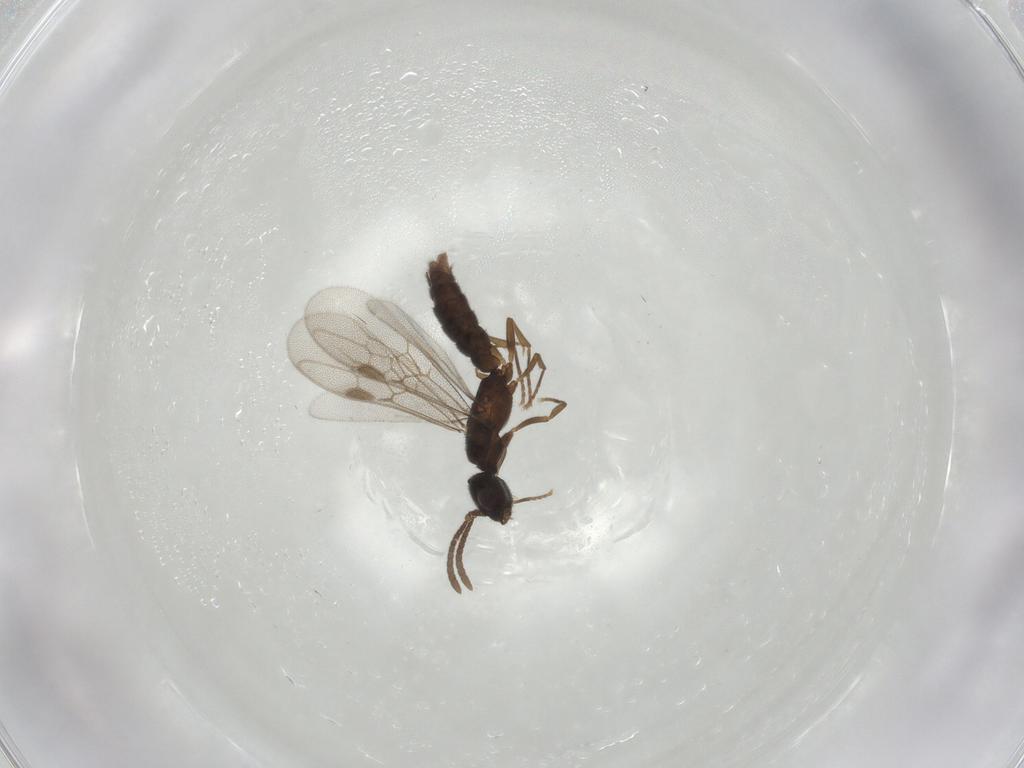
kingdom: Animalia
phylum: Arthropoda
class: Insecta
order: Hymenoptera
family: Formicidae
